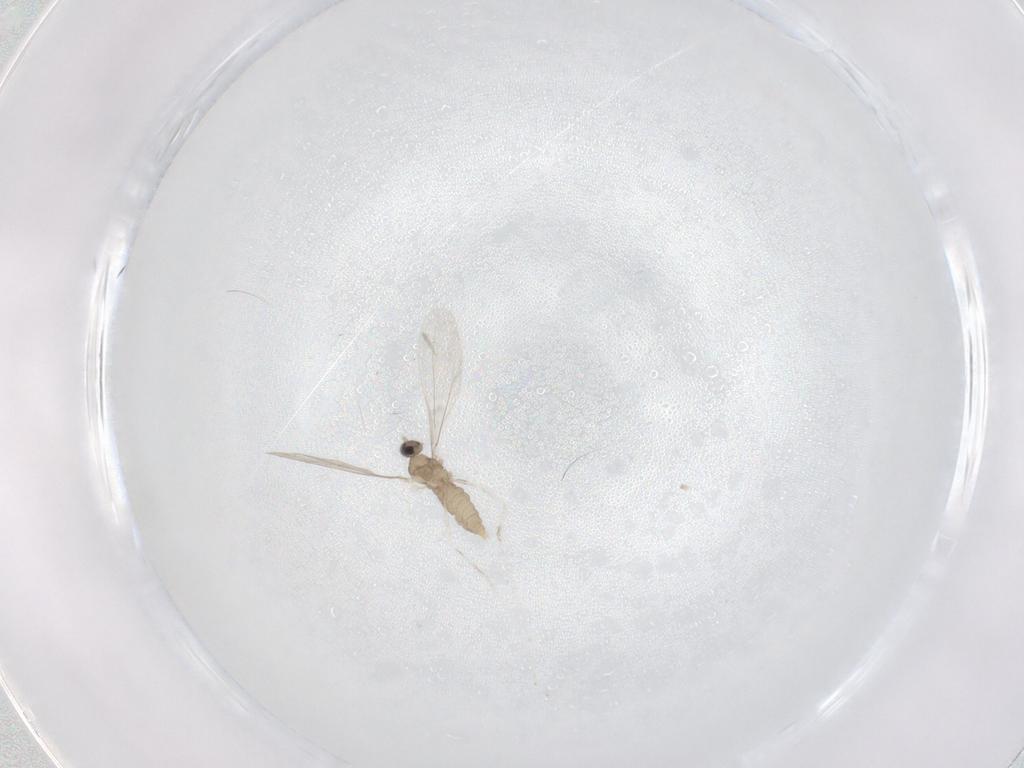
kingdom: Animalia
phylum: Arthropoda
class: Insecta
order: Diptera
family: Cecidomyiidae
